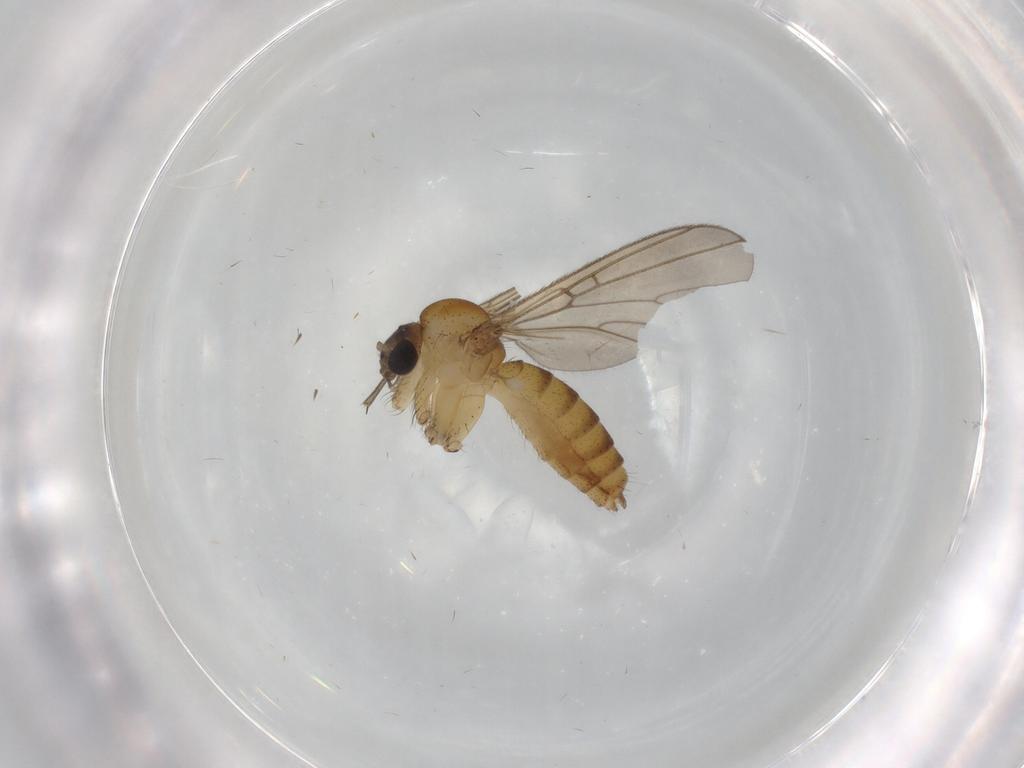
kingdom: Animalia
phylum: Arthropoda
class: Insecta
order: Diptera
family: Mycetophilidae
